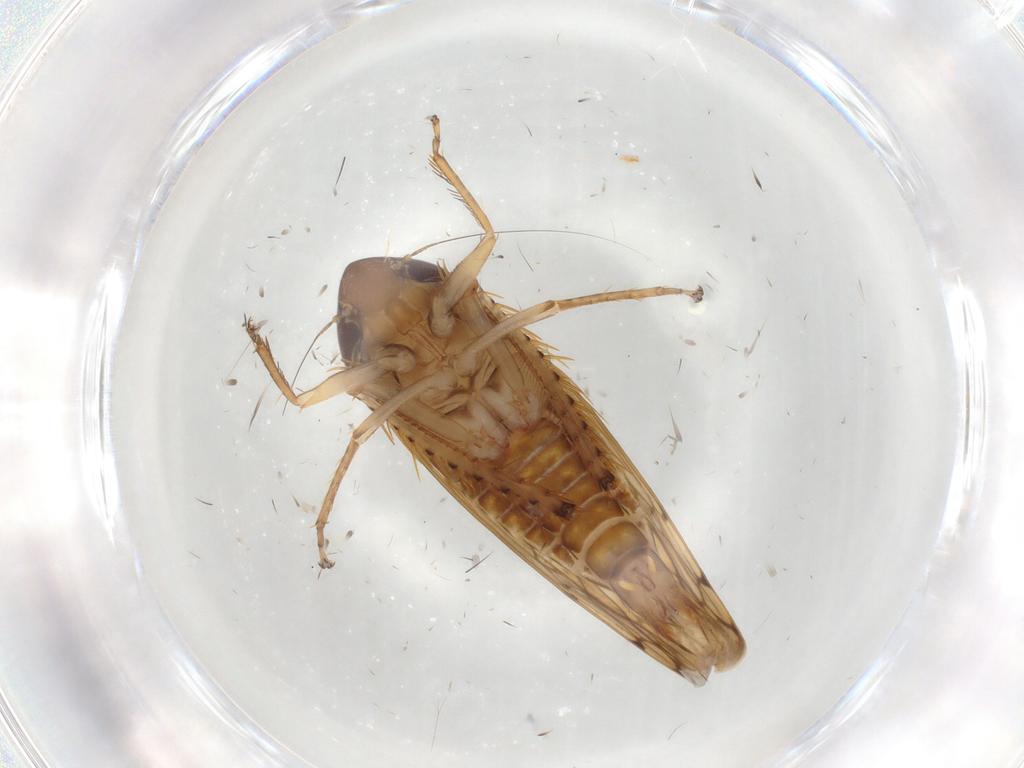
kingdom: Animalia
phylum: Arthropoda
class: Insecta
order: Hemiptera
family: Cicadellidae
